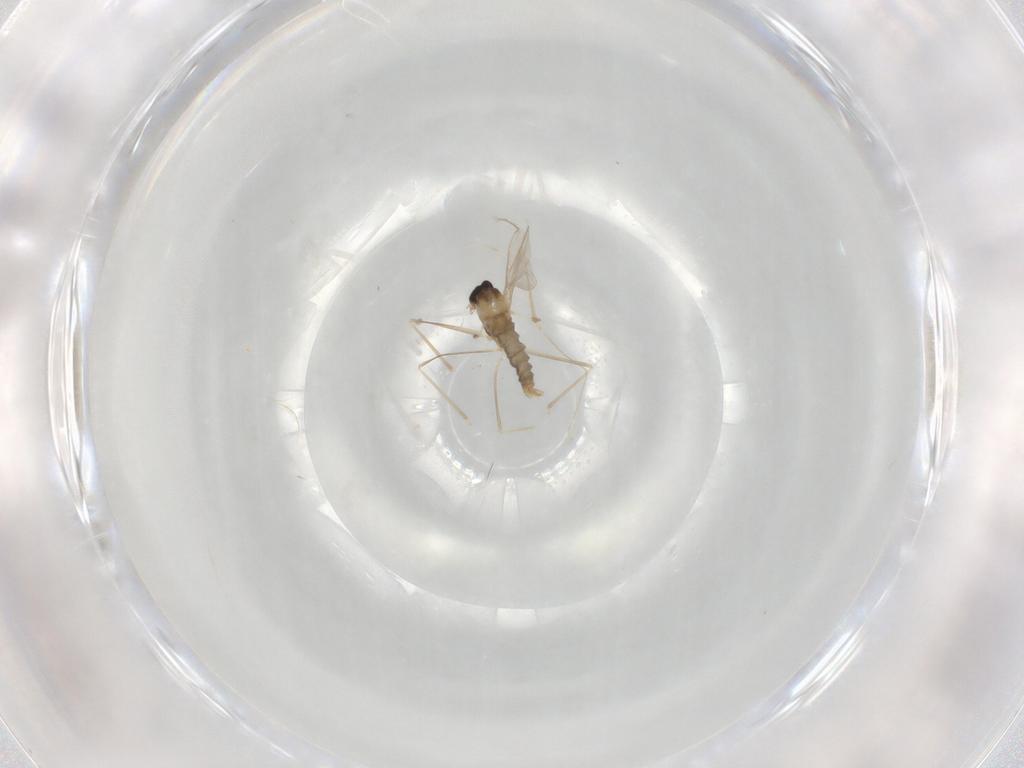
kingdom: Animalia
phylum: Arthropoda
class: Insecta
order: Diptera
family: Cecidomyiidae
